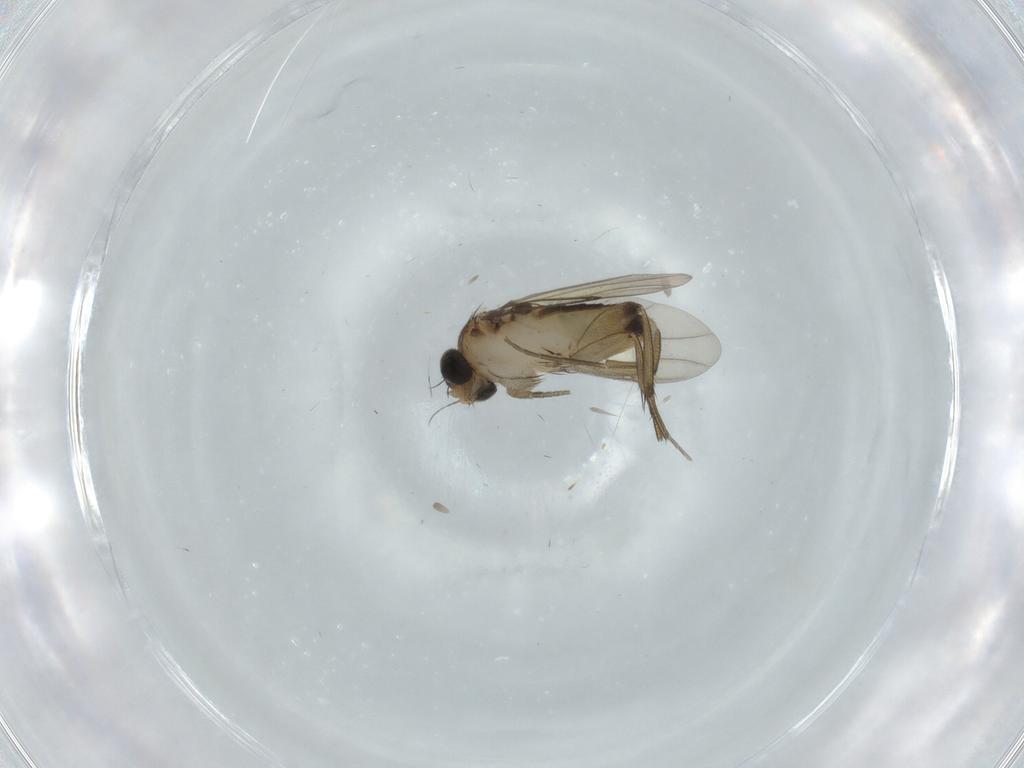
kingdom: Animalia
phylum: Arthropoda
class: Insecta
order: Diptera
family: Phoridae
